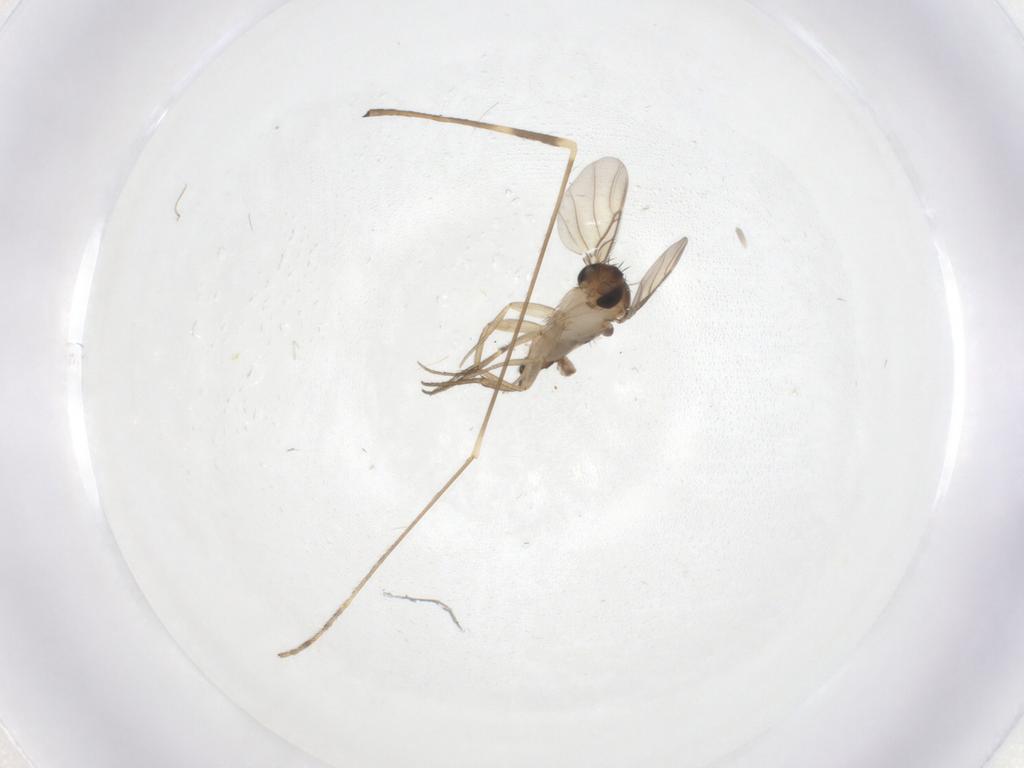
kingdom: Animalia
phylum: Arthropoda
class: Insecta
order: Diptera
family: Limoniidae
